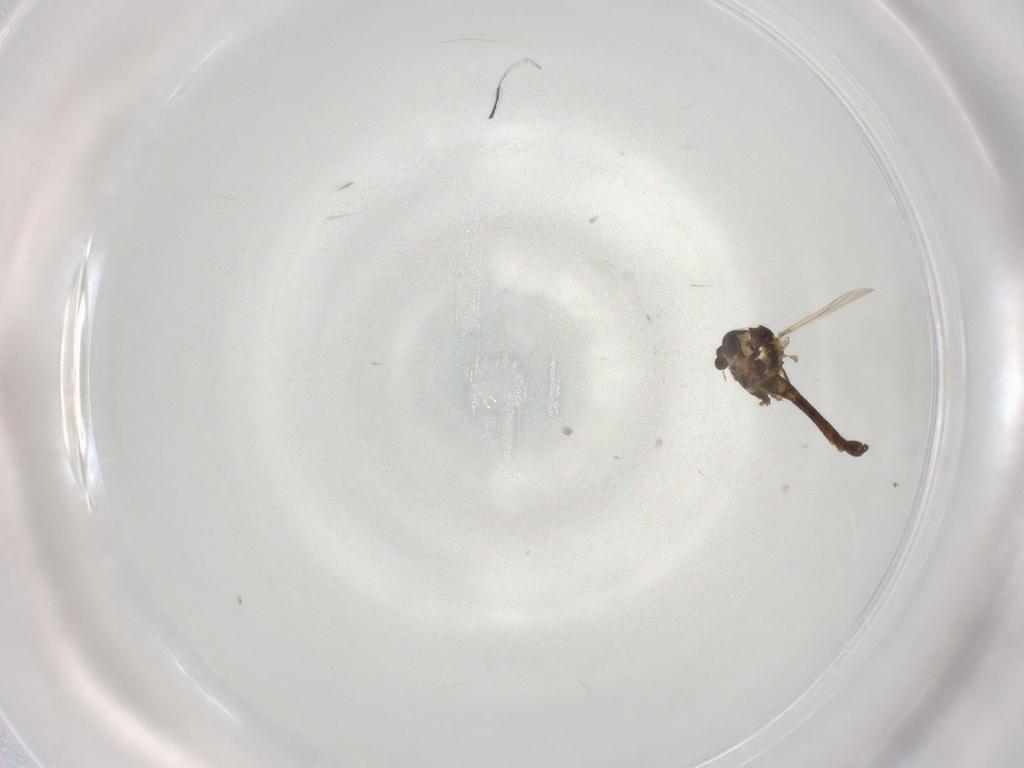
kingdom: Animalia
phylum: Arthropoda
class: Insecta
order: Diptera
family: Chironomidae
